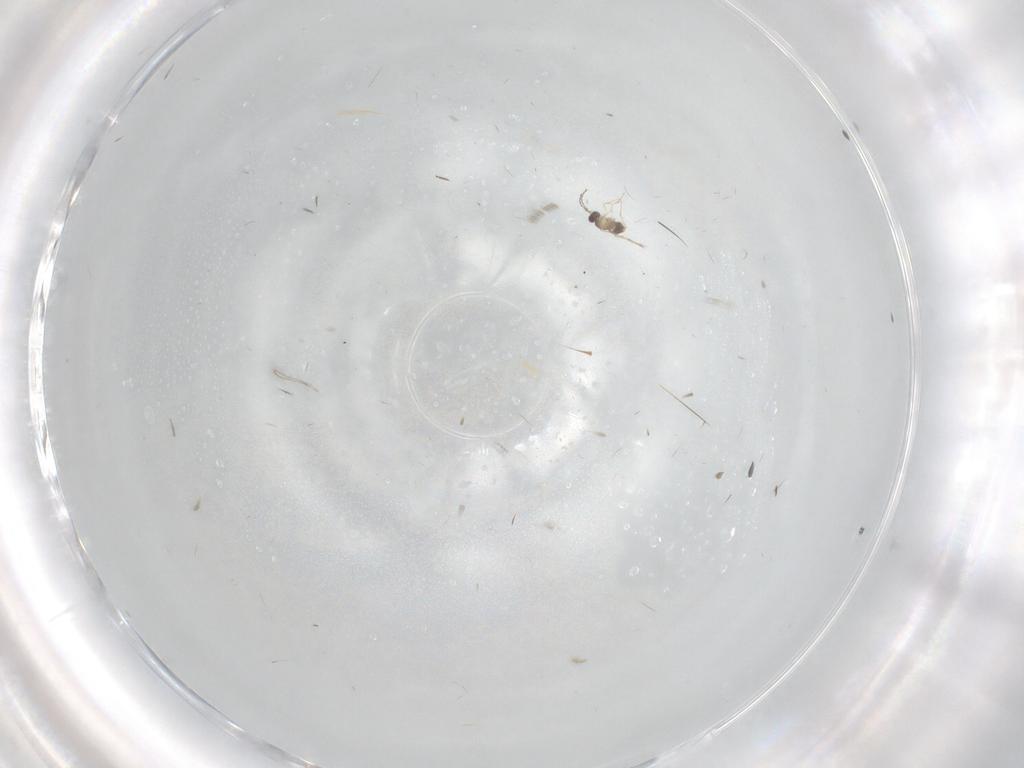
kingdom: Animalia
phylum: Arthropoda
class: Insecta
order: Hymenoptera
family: Mymaridae
